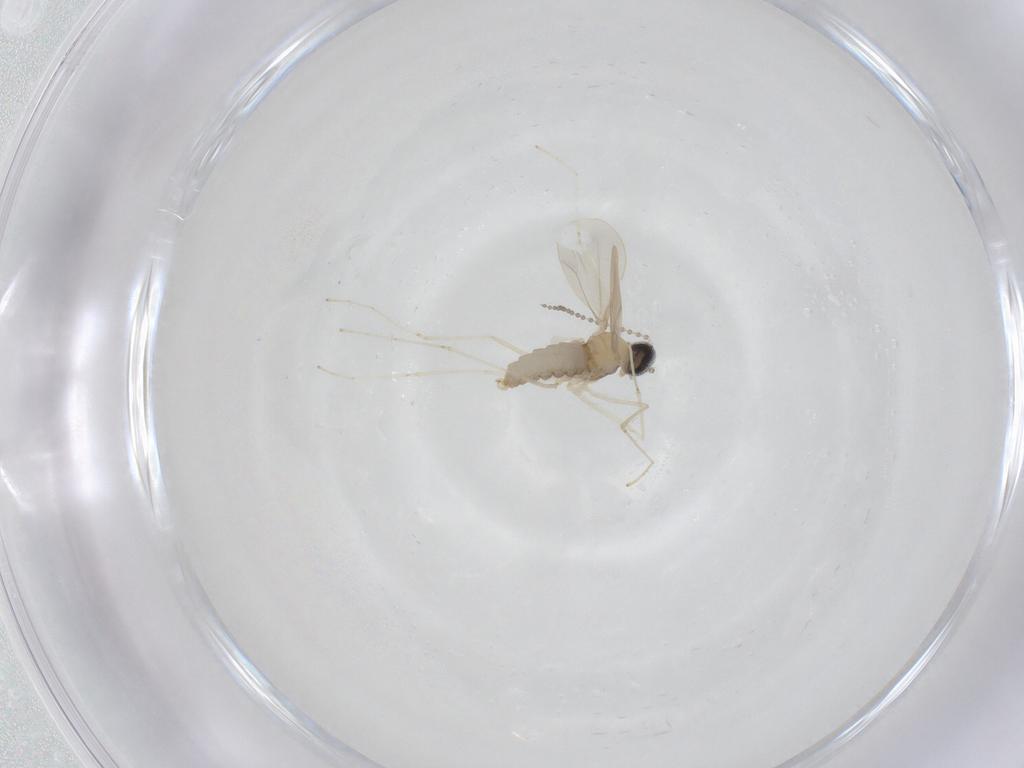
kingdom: Animalia
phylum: Arthropoda
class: Insecta
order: Diptera
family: Cecidomyiidae
